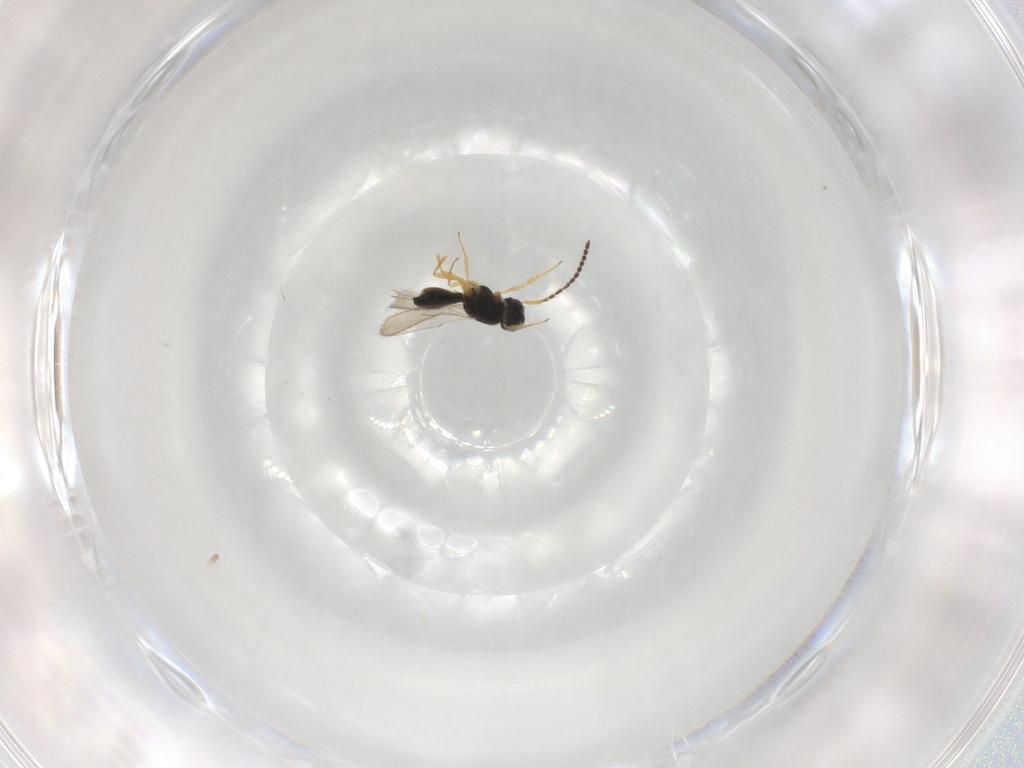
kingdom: Animalia
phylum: Arthropoda
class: Insecta
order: Hymenoptera
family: Scelionidae
